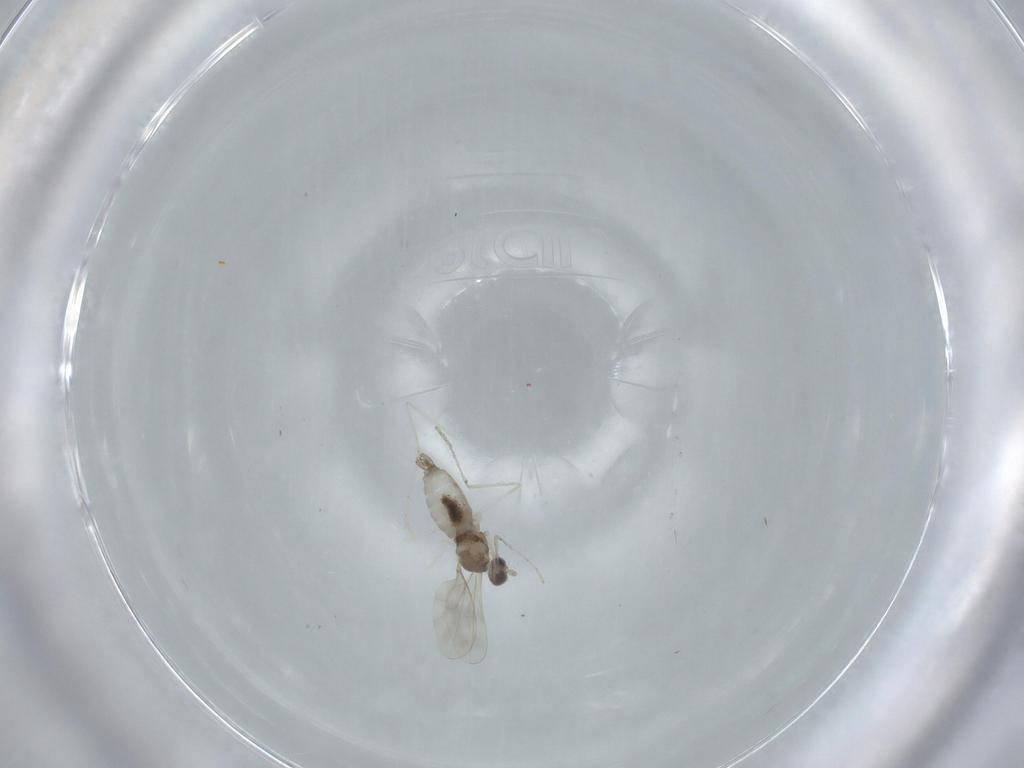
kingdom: Animalia
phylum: Arthropoda
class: Insecta
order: Diptera
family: Cecidomyiidae
